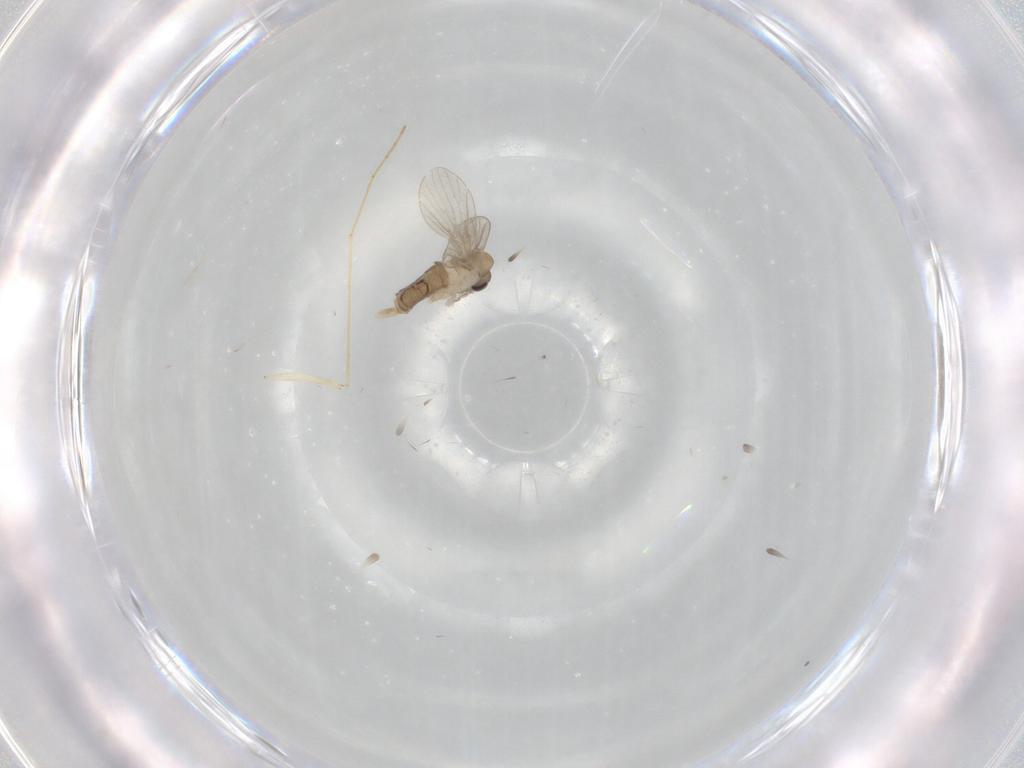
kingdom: Animalia
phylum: Arthropoda
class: Insecta
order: Diptera
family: Psychodidae
